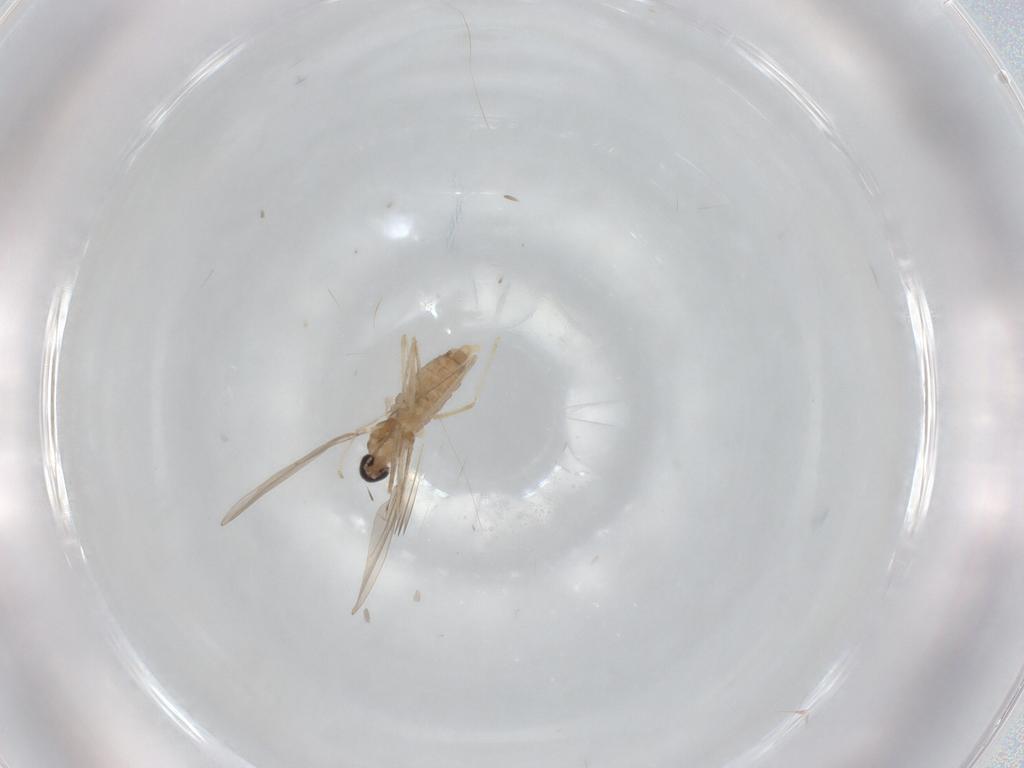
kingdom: Animalia
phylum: Arthropoda
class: Insecta
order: Diptera
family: Cecidomyiidae
